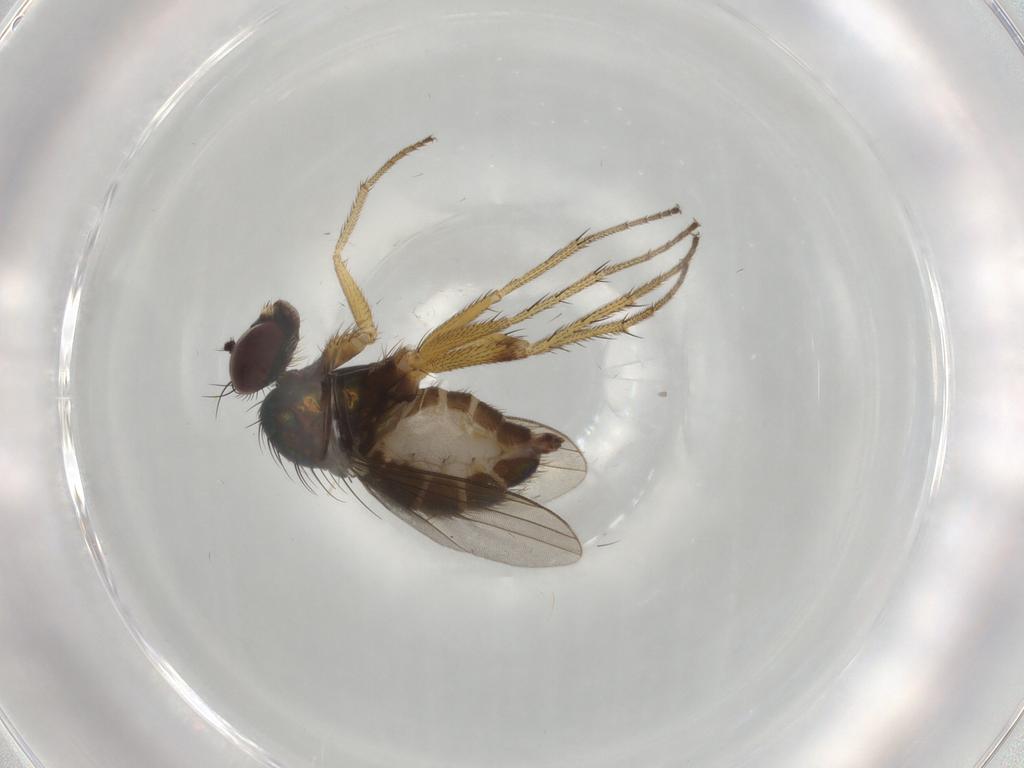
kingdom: Animalia
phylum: Arthropoda
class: Insecta
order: Diptera
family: Dolichopodidae
